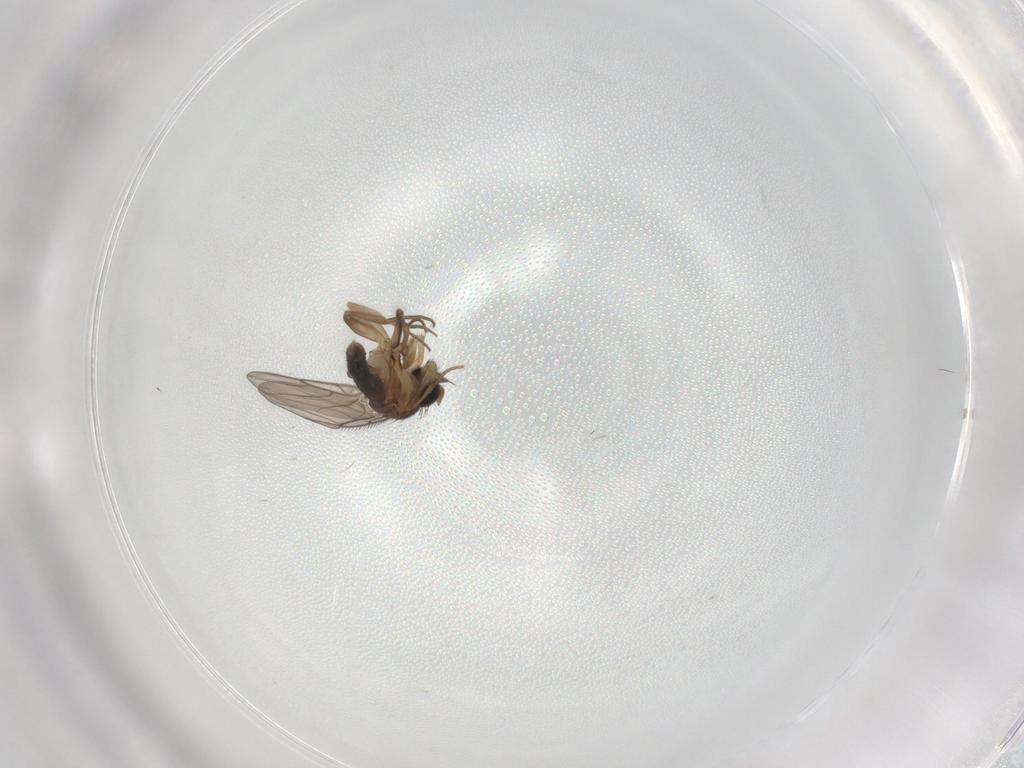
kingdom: Animalia
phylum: Arthropoda
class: Insecta
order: Diptera
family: Phoridae
